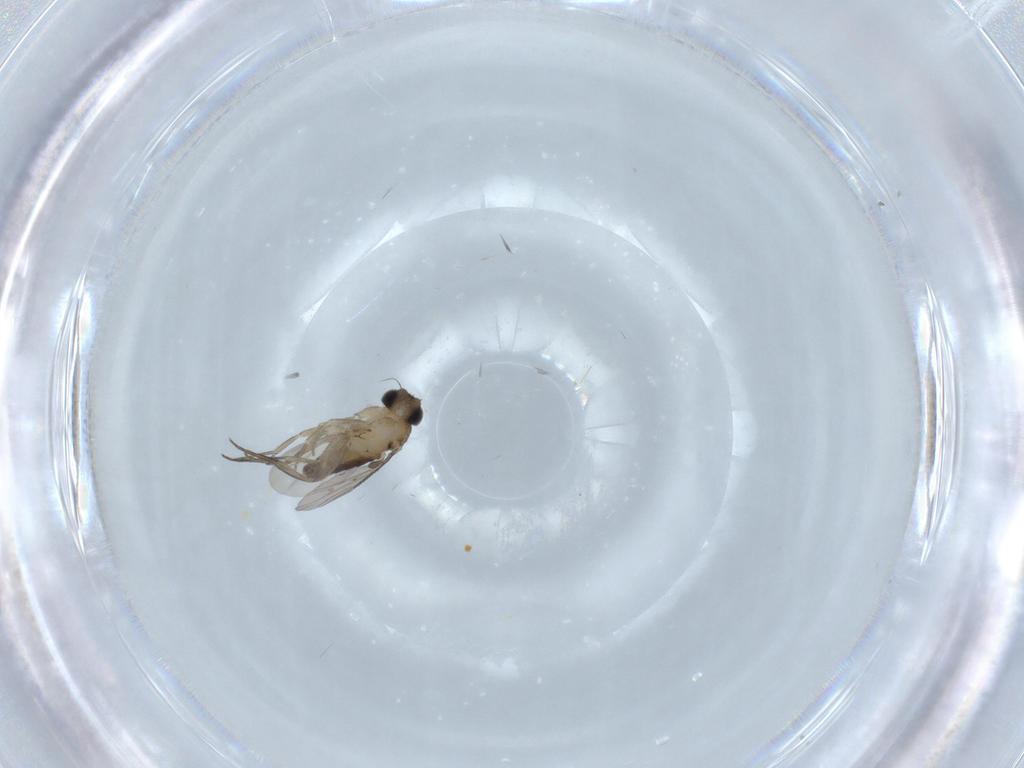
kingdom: Animalia
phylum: Arthropoda
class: Insecta
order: Diptera
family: Phoridae
